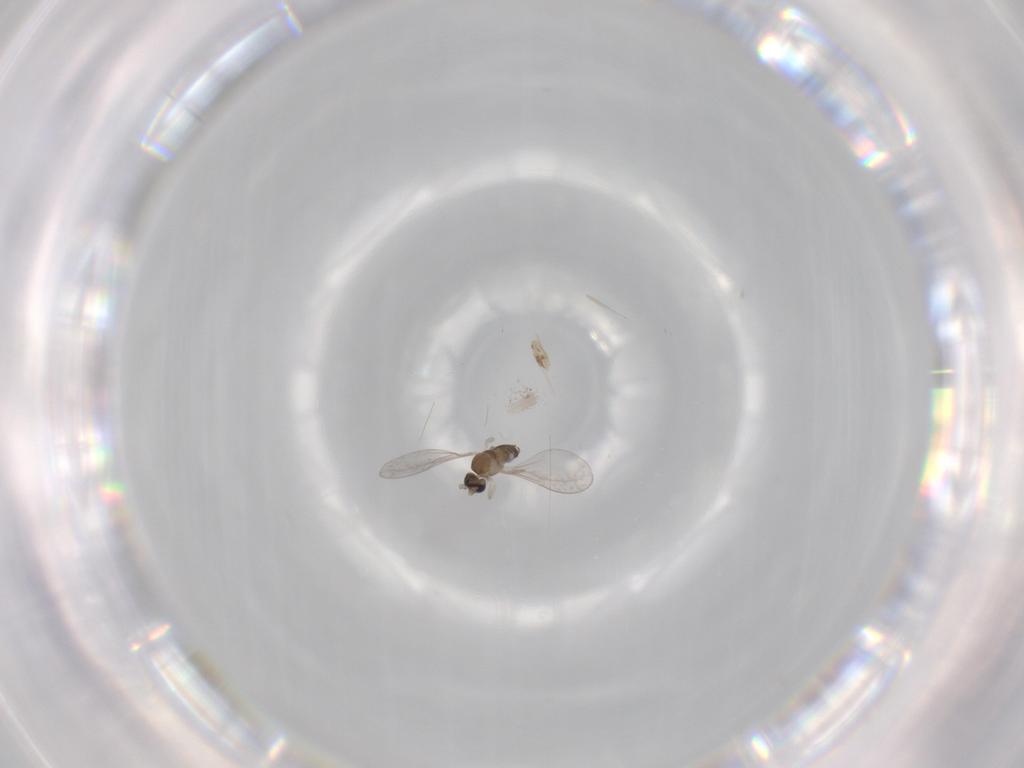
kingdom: Animalia
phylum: Arthropoda
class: Insecta
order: Diptera
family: Cecidomyiidae
